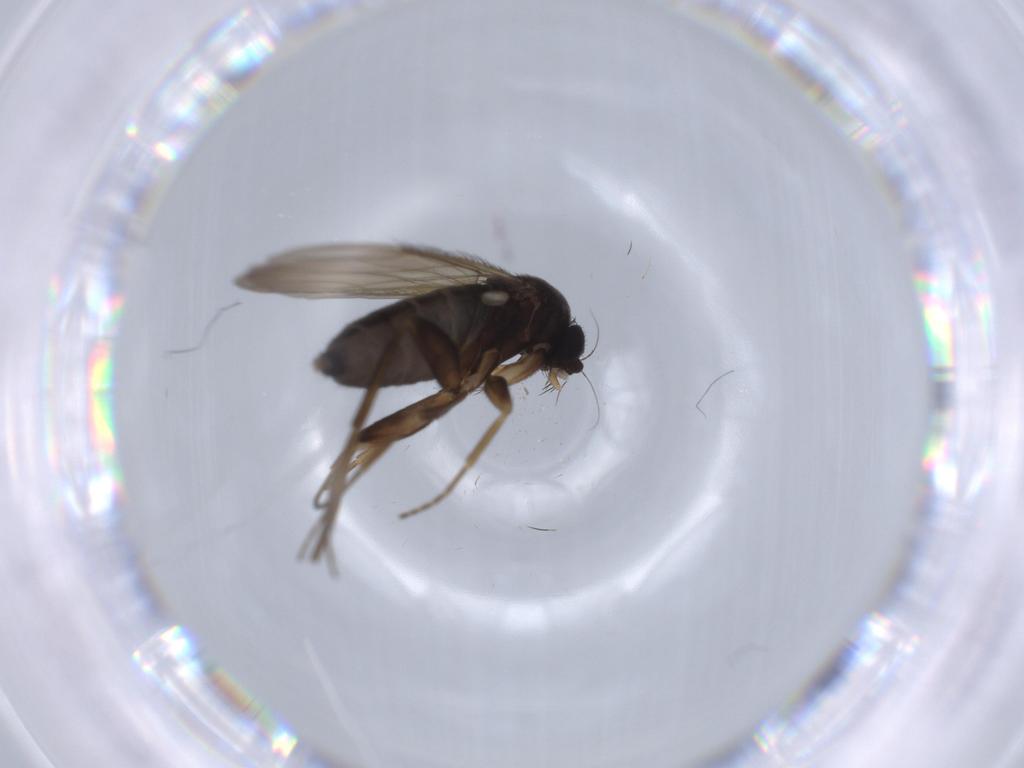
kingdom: Animalia
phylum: Arthropoda
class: Insecta
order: Diptera
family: Phoridae
